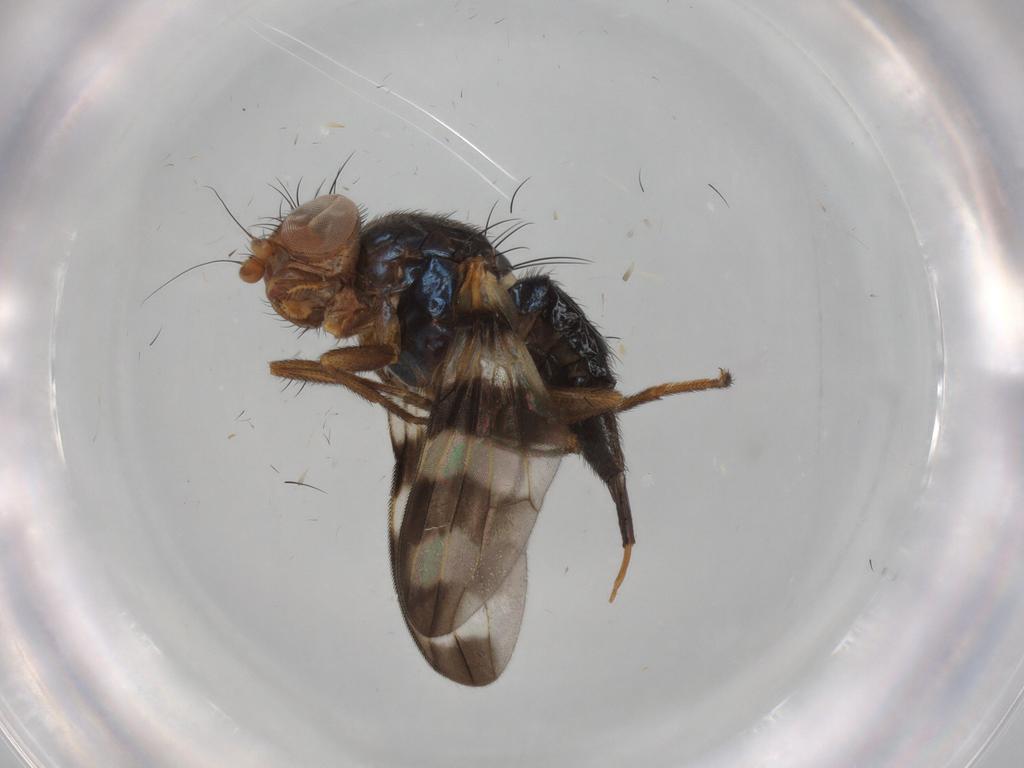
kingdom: Animalia
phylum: Arthropoda
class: Insecta
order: Diptera
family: Ulidiidae
